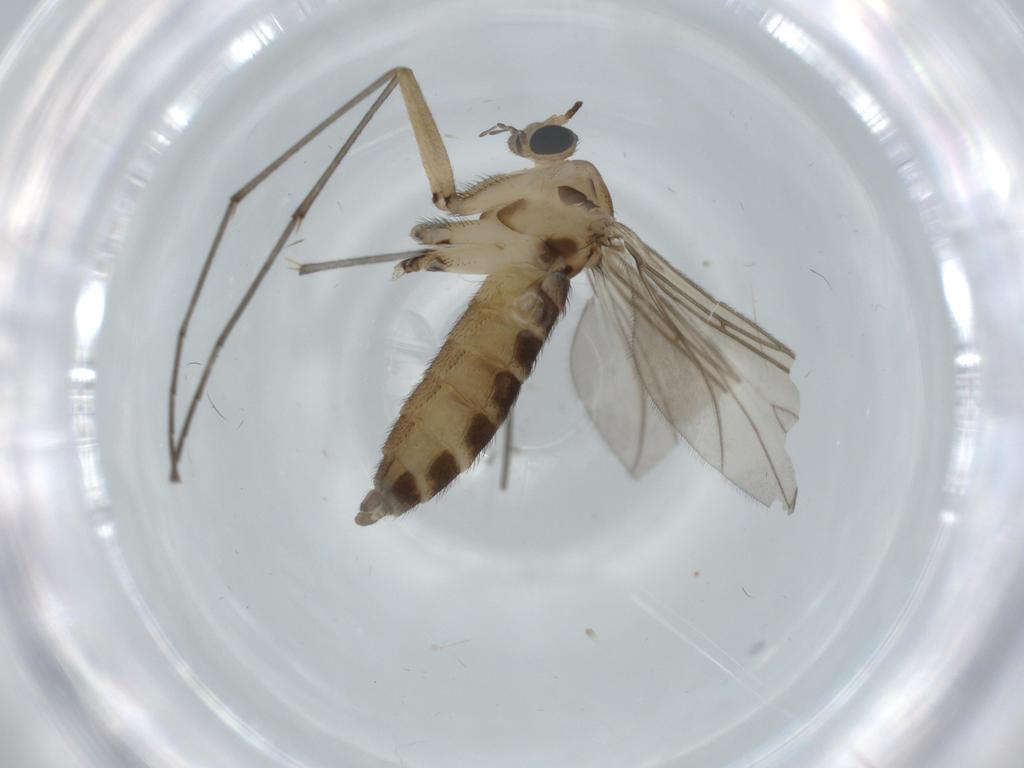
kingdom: Animalia
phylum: Arthropoda
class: Insecta
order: Diptera
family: Sciaridae
